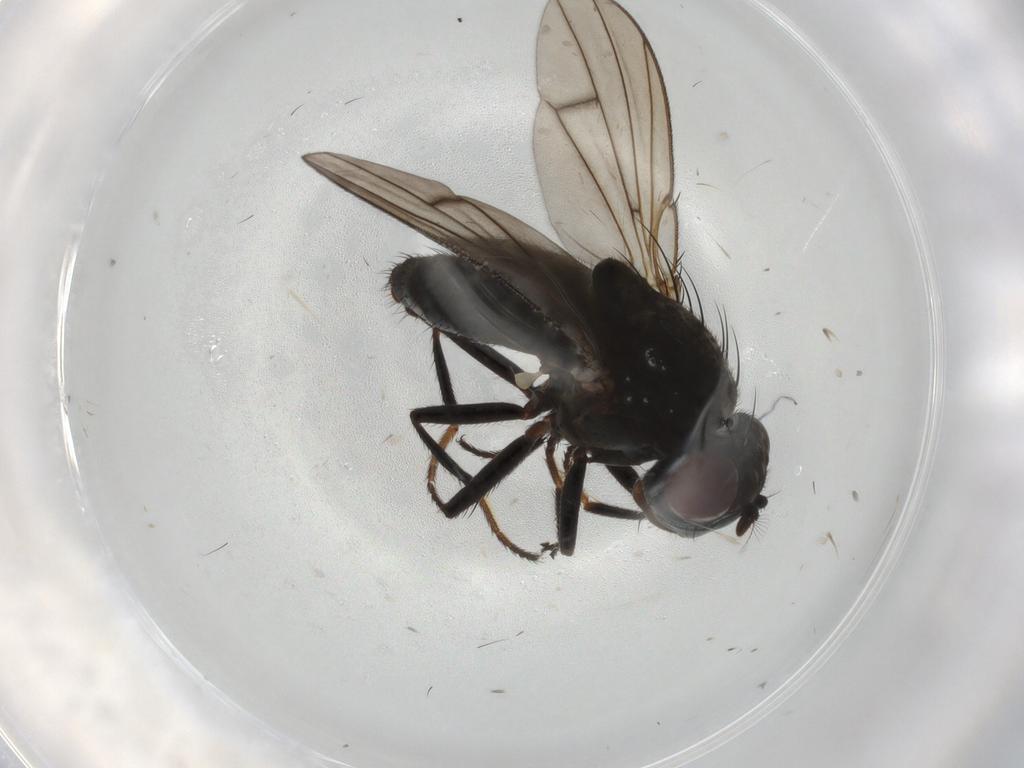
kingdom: Animalia
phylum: Arthropoda
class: Insecta
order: Diptera
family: Ephydridae
